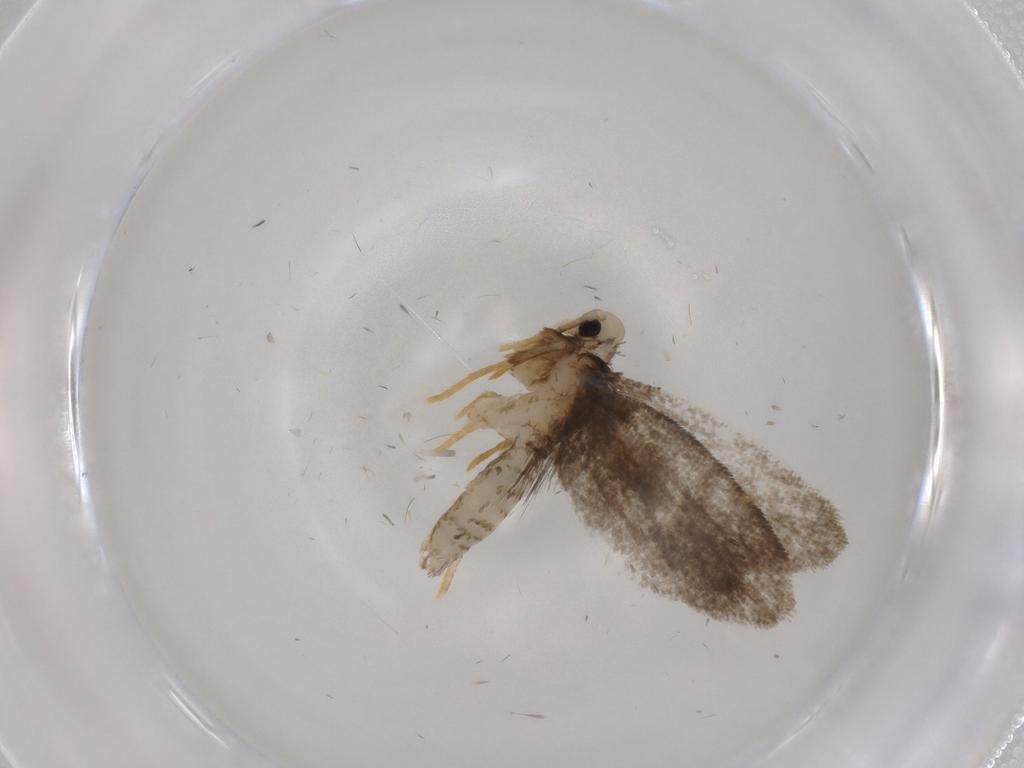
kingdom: Animalia
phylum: Arthropoda
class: Insecta
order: Lepidoptera
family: Psychidae
